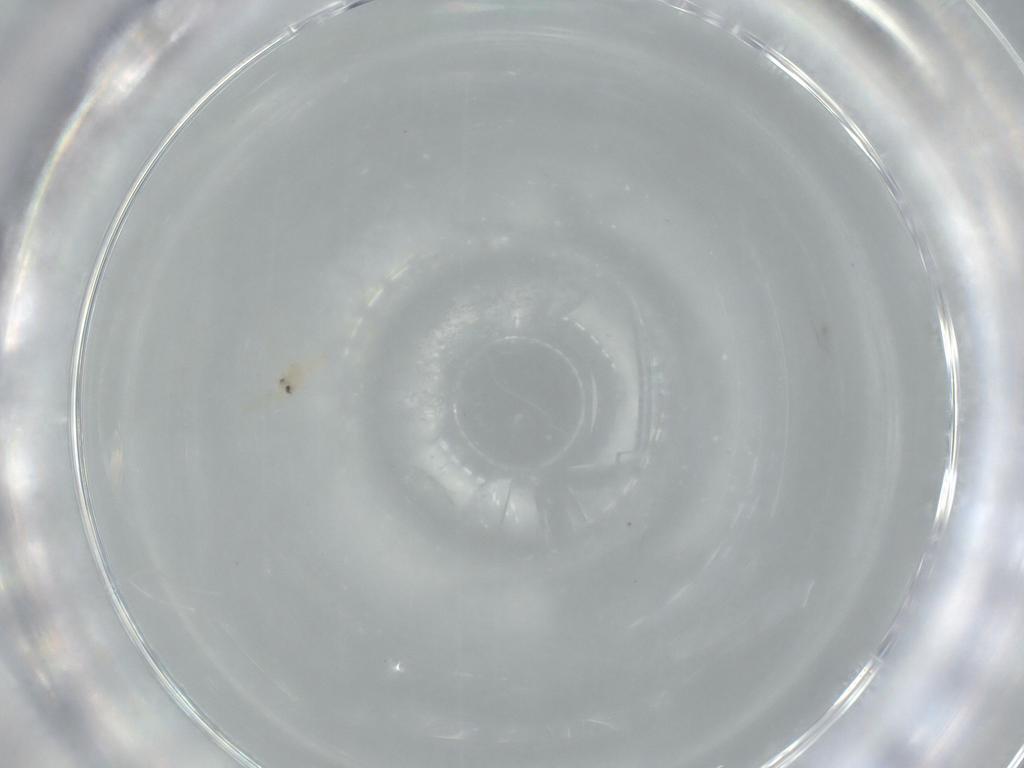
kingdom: Animalia
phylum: Arthropoda
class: Insecta
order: Hemiptera
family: Aleyrodidae
